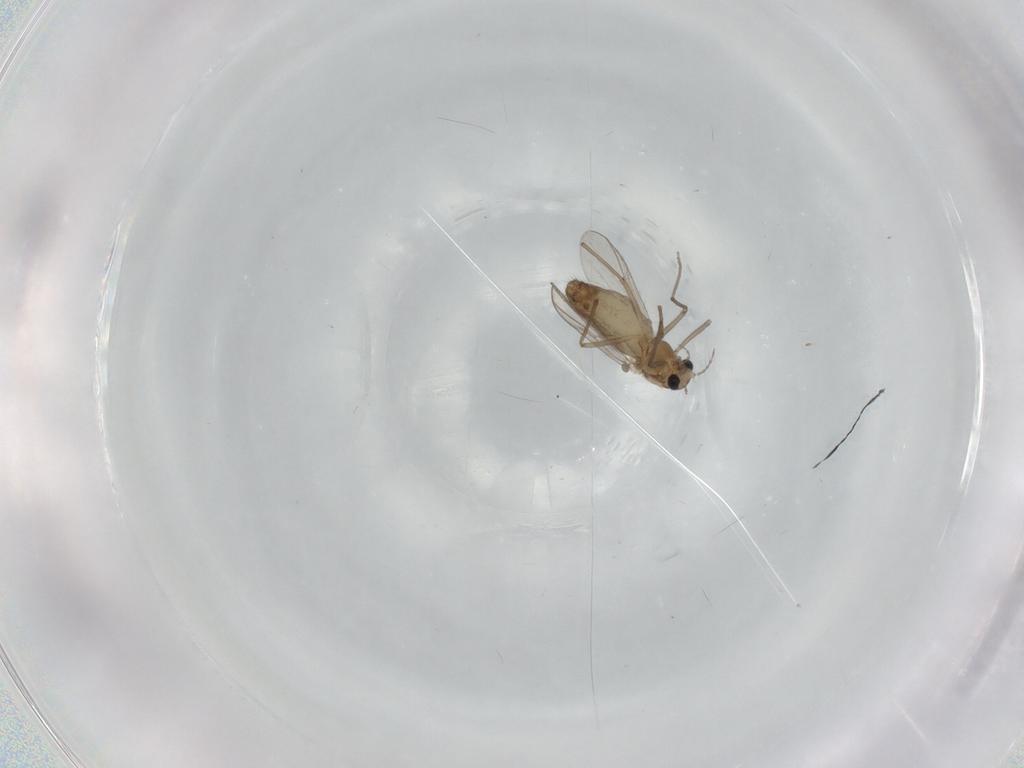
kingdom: Animalia
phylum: Arthropoda
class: Insecta
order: Diptera
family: Chironomidae
